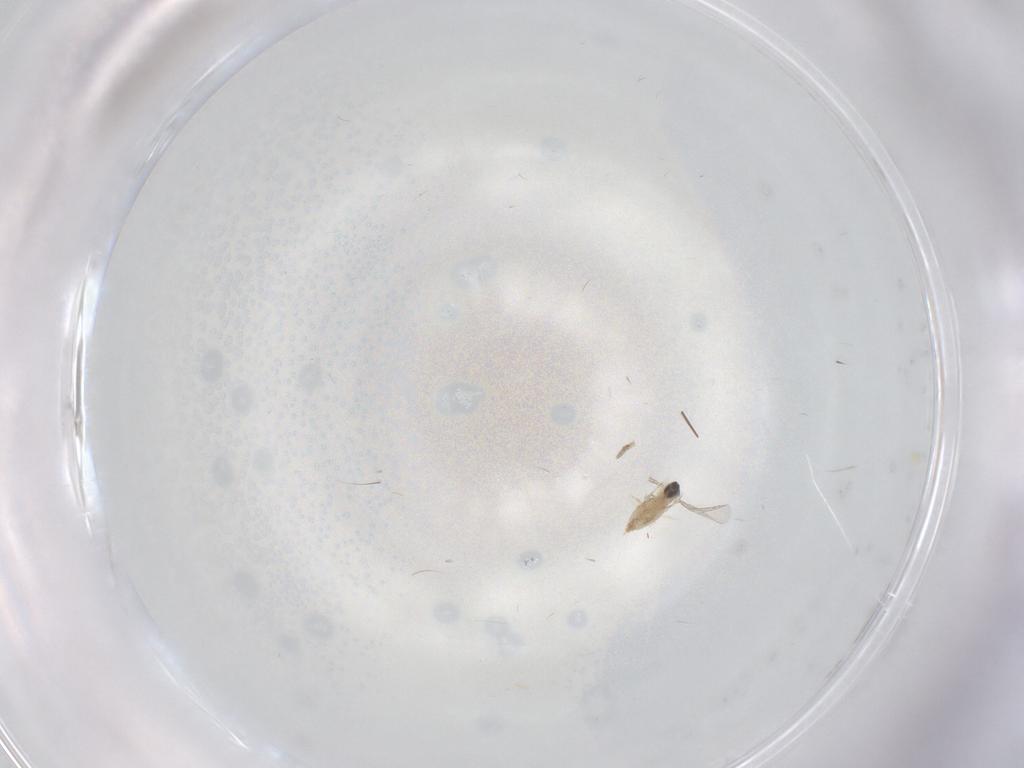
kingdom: Animalia
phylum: Arthropoda
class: Insecta
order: Diptera
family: Cecidomyiidae
